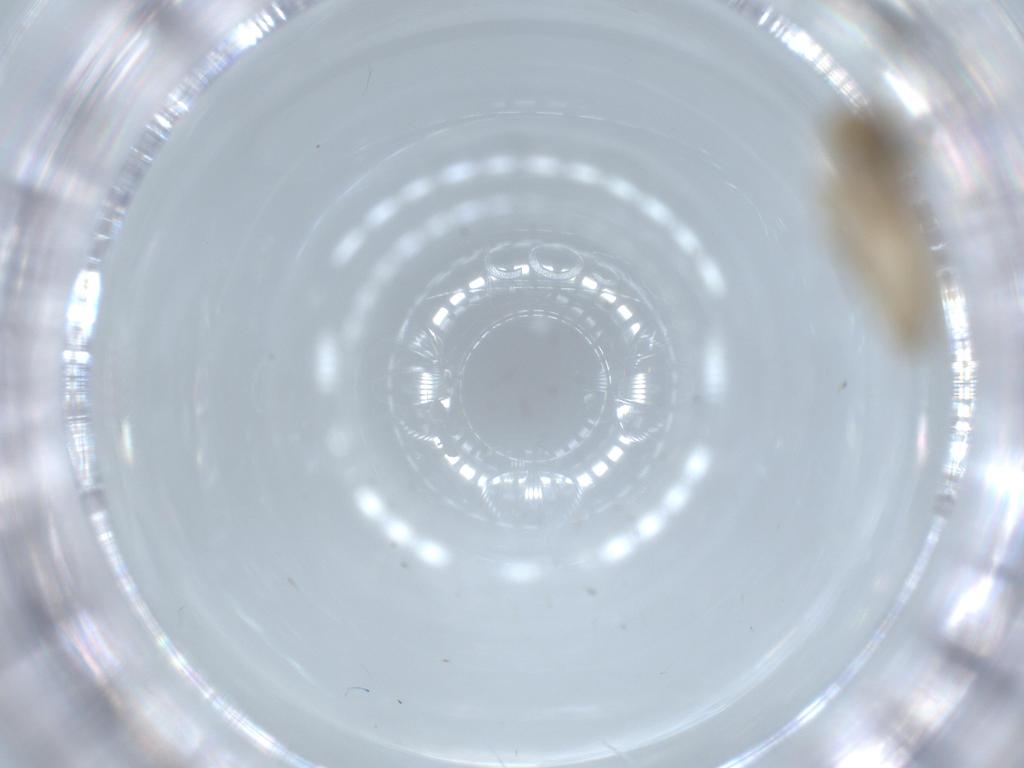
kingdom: Animalia
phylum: Arthropoda
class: Insecta
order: Lepidoptera
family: Bucculatricidae
